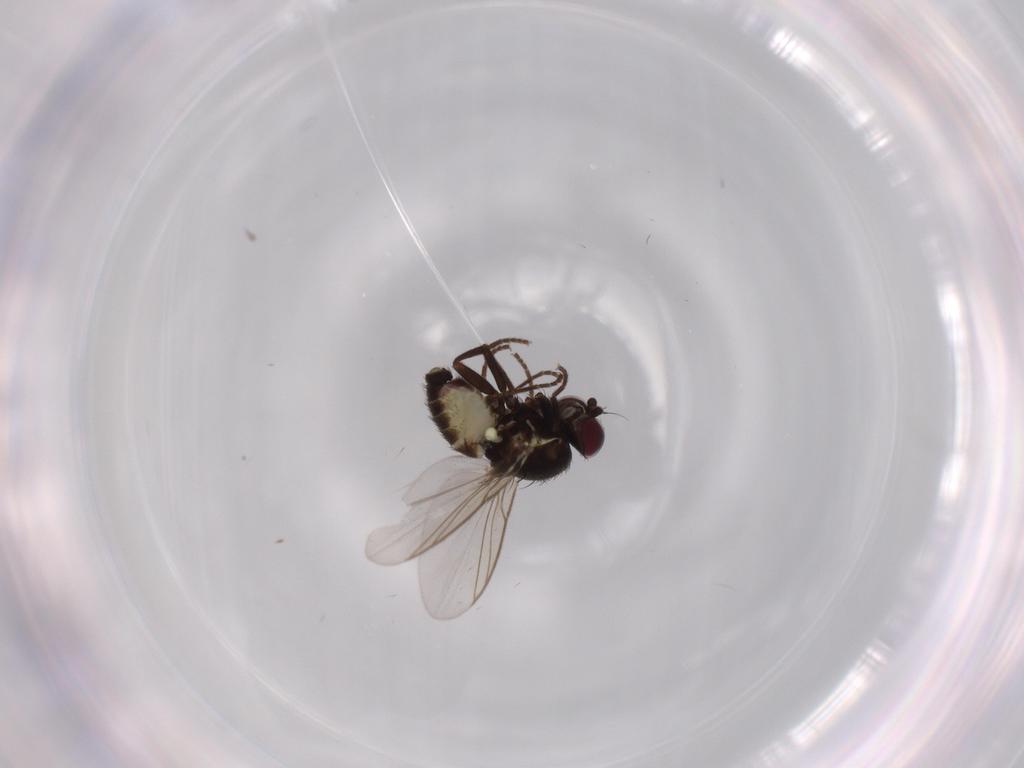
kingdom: Animalia
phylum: Arthropoda
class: Insecta
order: Diptera
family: Agromyzidae
